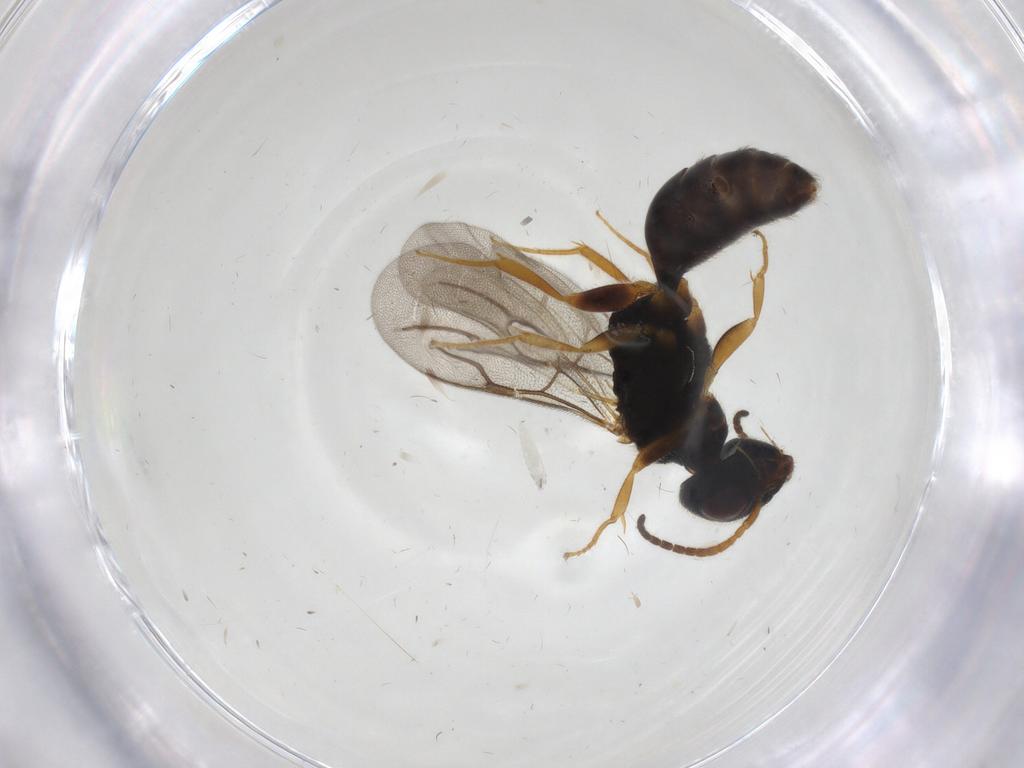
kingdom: Animalia
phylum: Arthropoda
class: Insecta
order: Hymenoptera
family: Bethylidae
